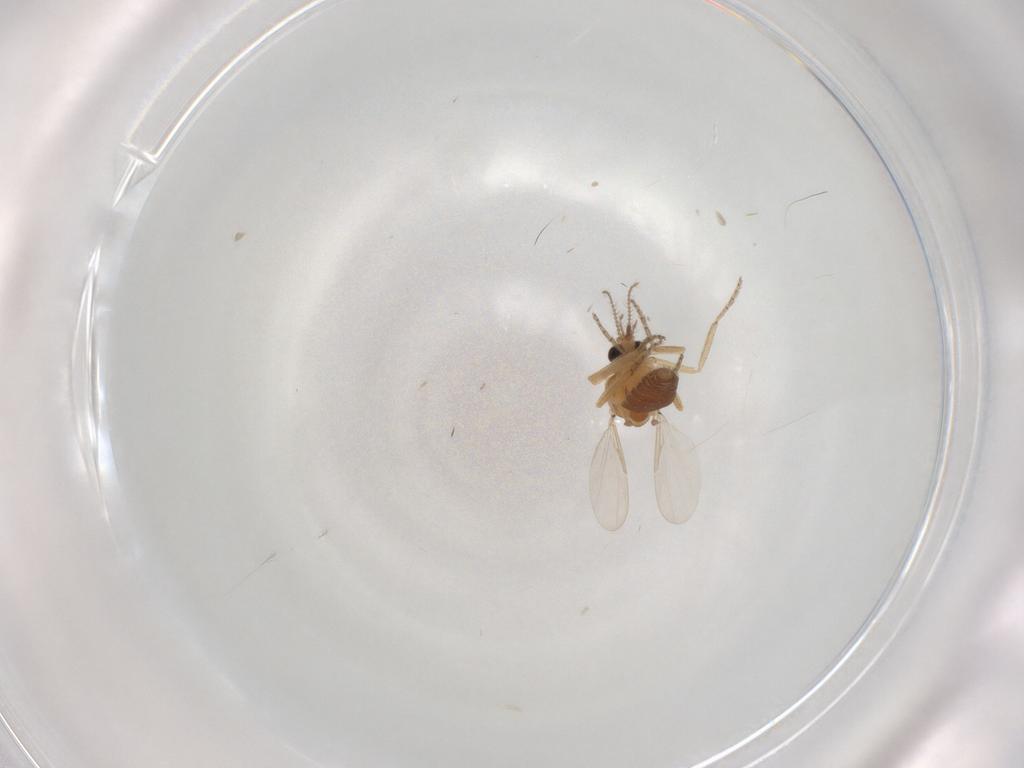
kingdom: Animalia
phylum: Arthropoda
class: Insecta
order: Diptera
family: Ceratopogonidae
